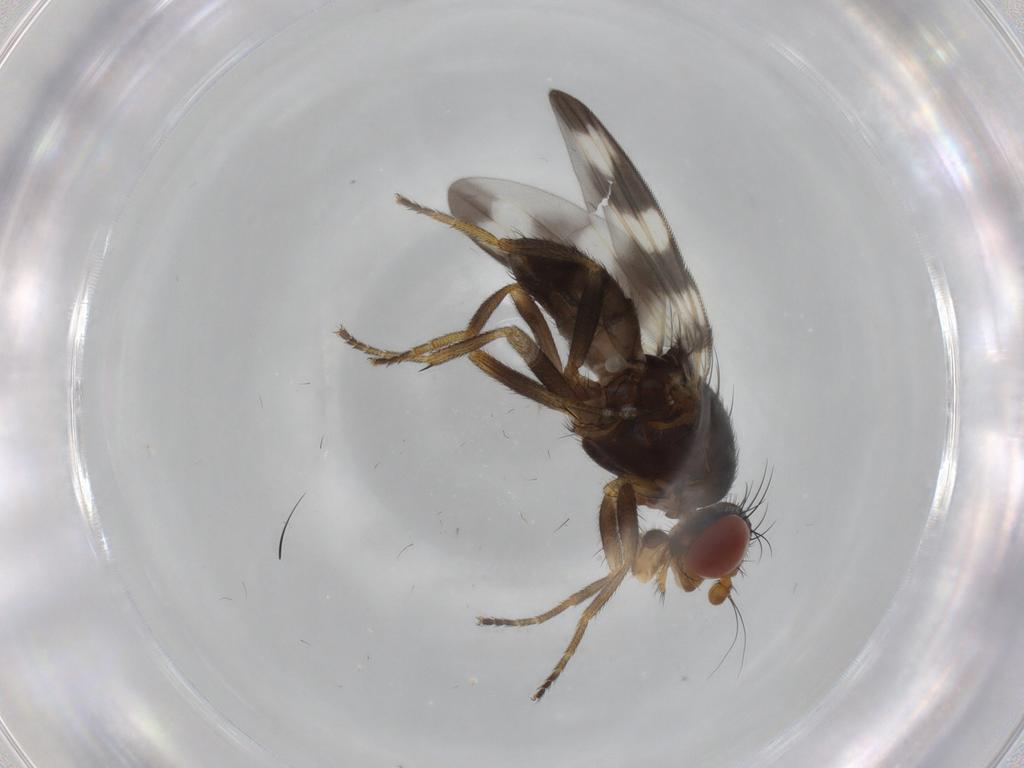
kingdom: Animalia
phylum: Arthropoda
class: Insecta
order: Diptera
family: Ulidiidae
